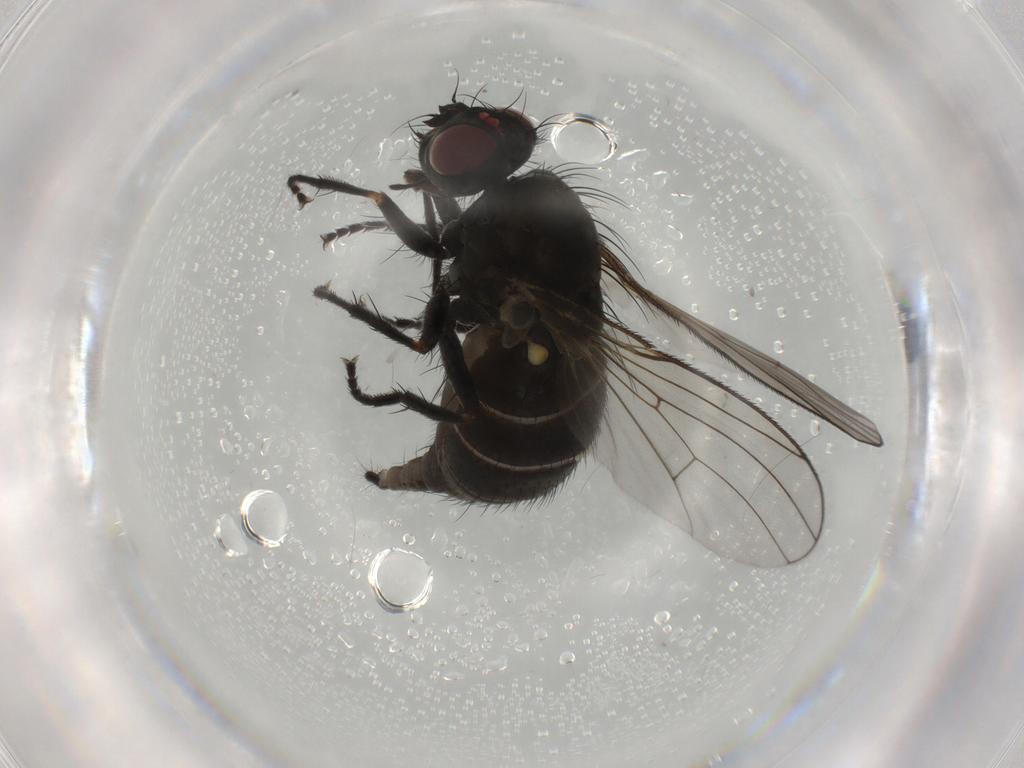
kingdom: Animalia
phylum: Arthropoda
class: Insecta
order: Diptera
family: Muscidae
